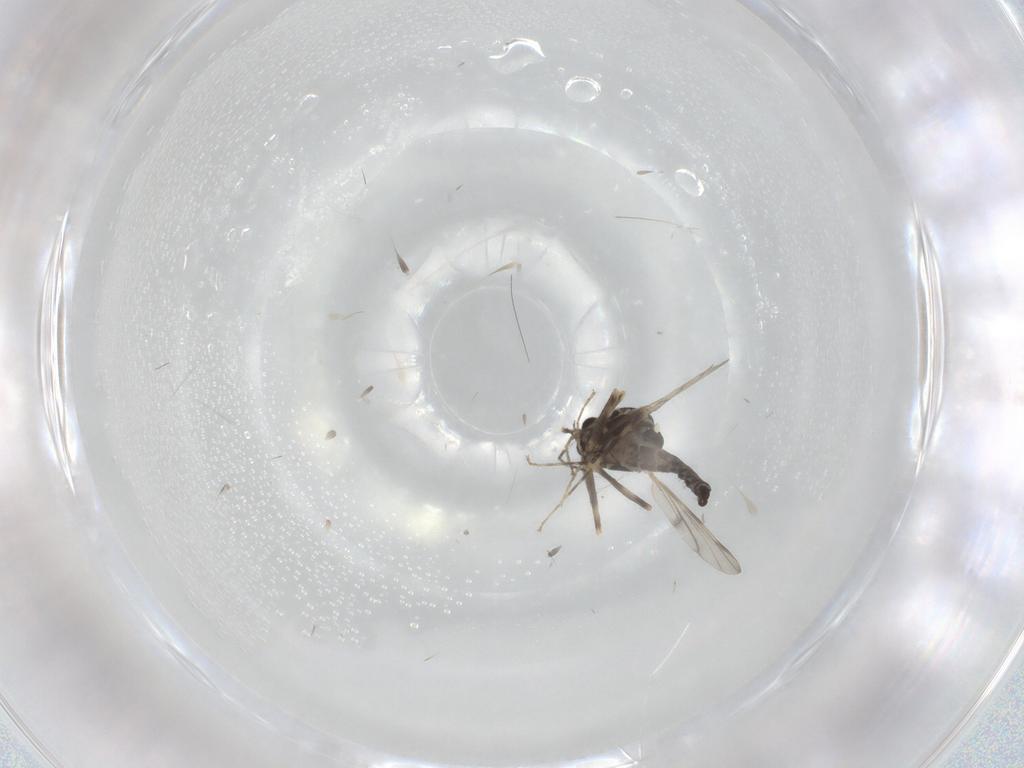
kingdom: Animalia
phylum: Arthropoda
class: Insecta
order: Diptera
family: Ceratopogonidae
